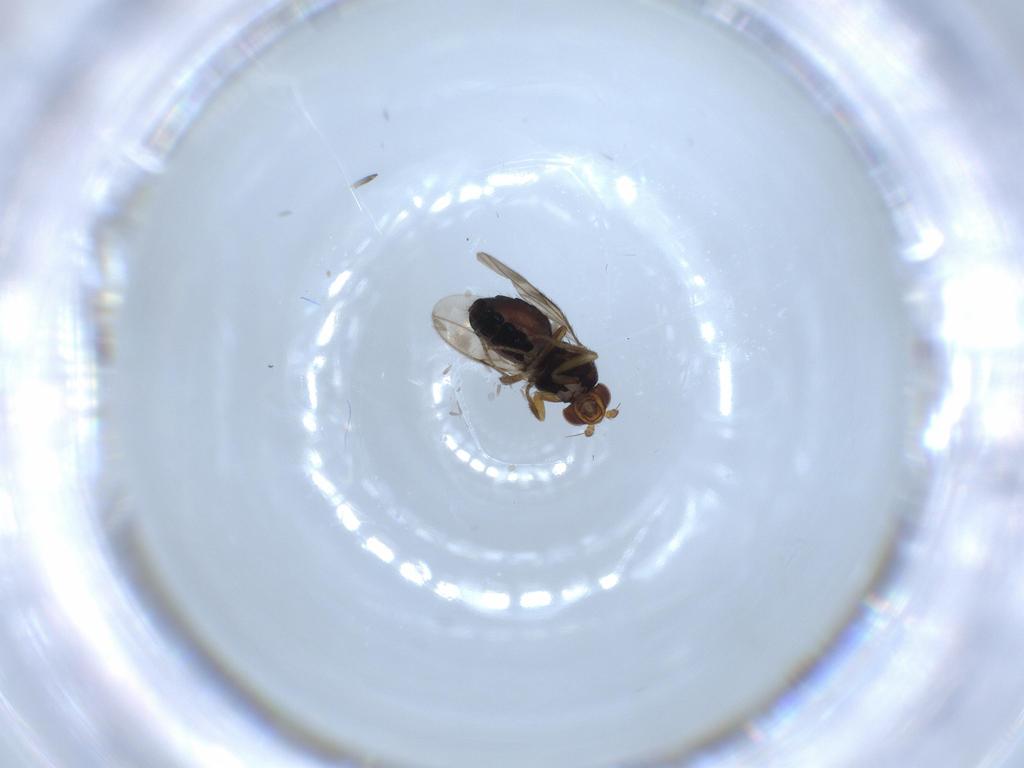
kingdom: Animalia
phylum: Arthropoda
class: Insecta
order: Diptera
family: Sphaeroceridae
